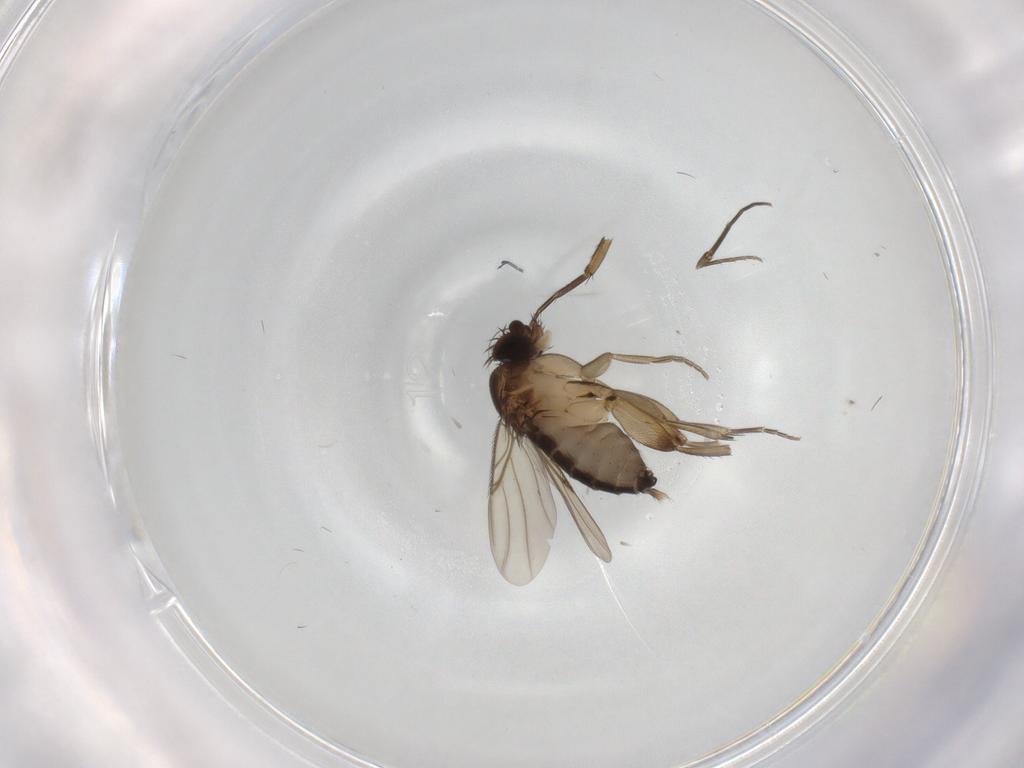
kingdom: Animalia
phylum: Arthropoda
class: Insecta
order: Diptera
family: Phoridae
